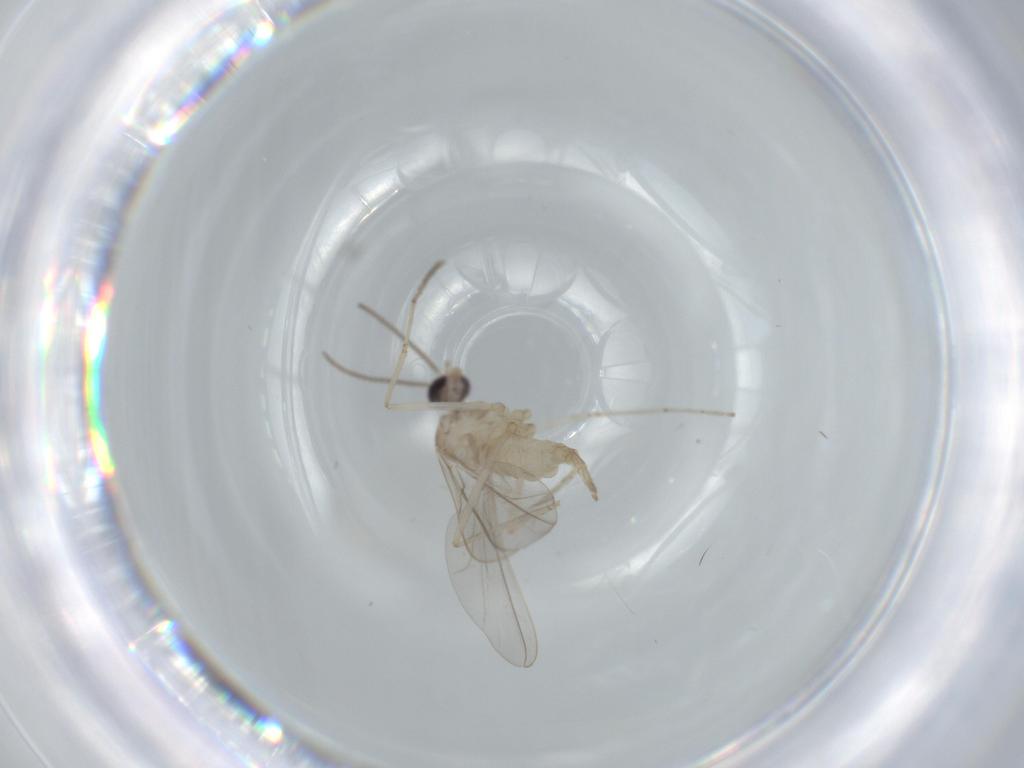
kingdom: Animalia
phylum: Arthropoda
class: Insecta
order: Diptera
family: Cecidomyiidae
